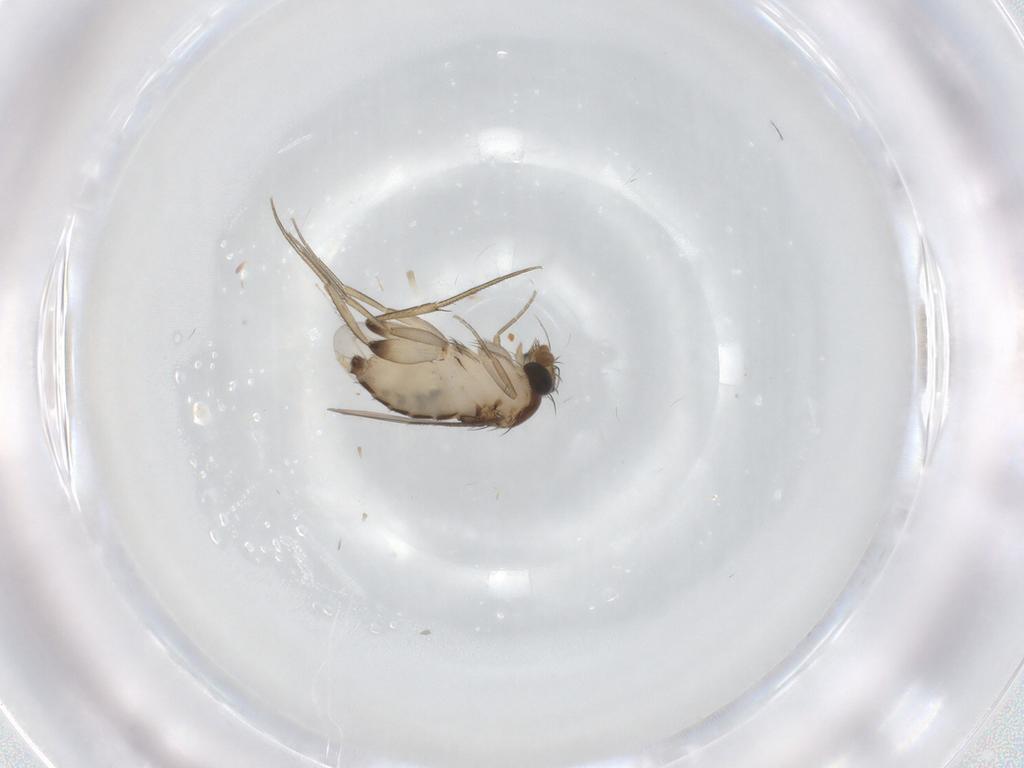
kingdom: Animalia
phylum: Arthropoda
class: Insecta
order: Diptera
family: Phoridae
